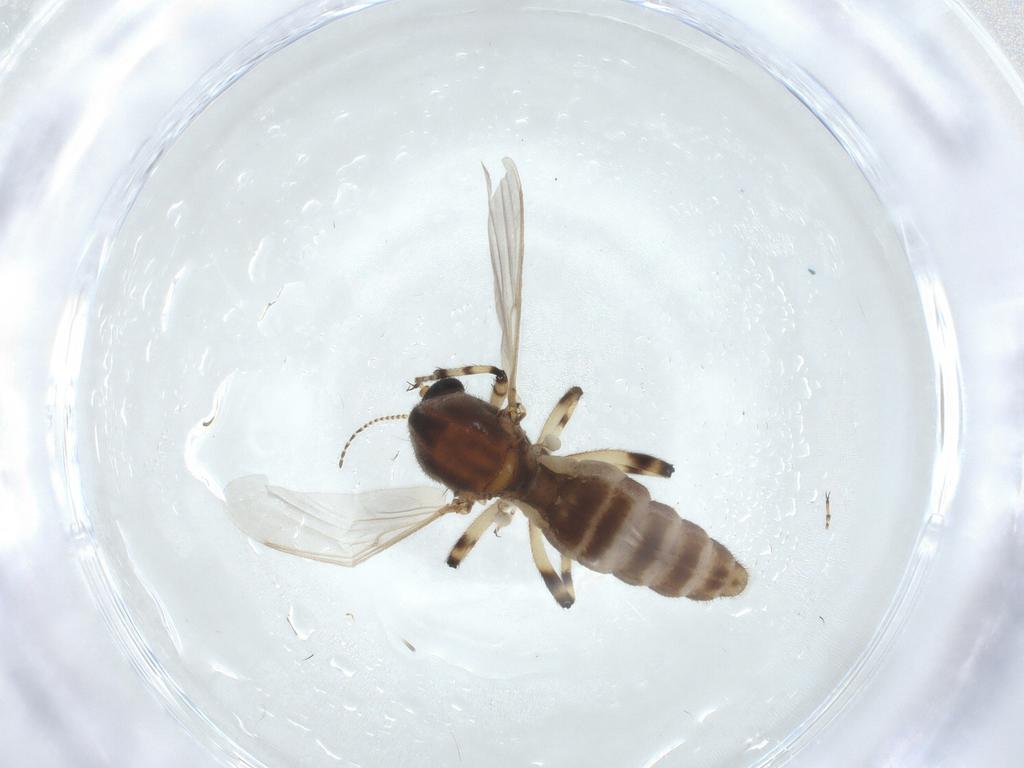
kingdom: Animalia
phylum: Arthropoda
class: Insecta
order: Diptera
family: Ceratopogonidae
